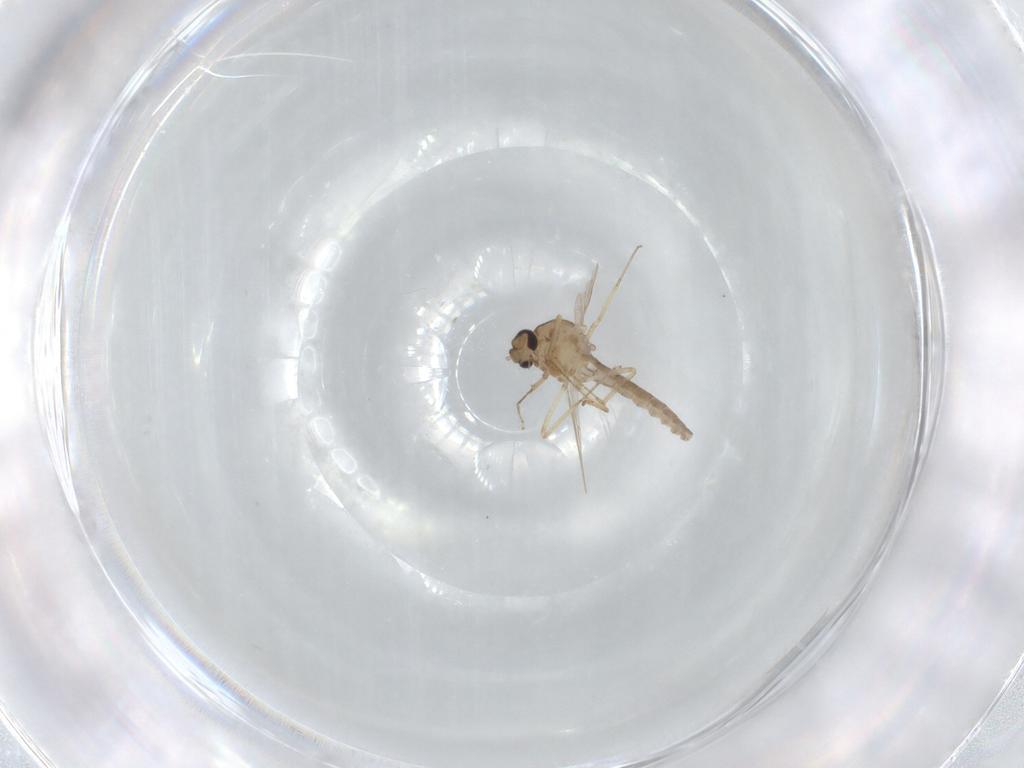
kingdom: Animalia
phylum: Arthropoda
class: Insecta
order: Diptera
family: Ceratopogonidae
